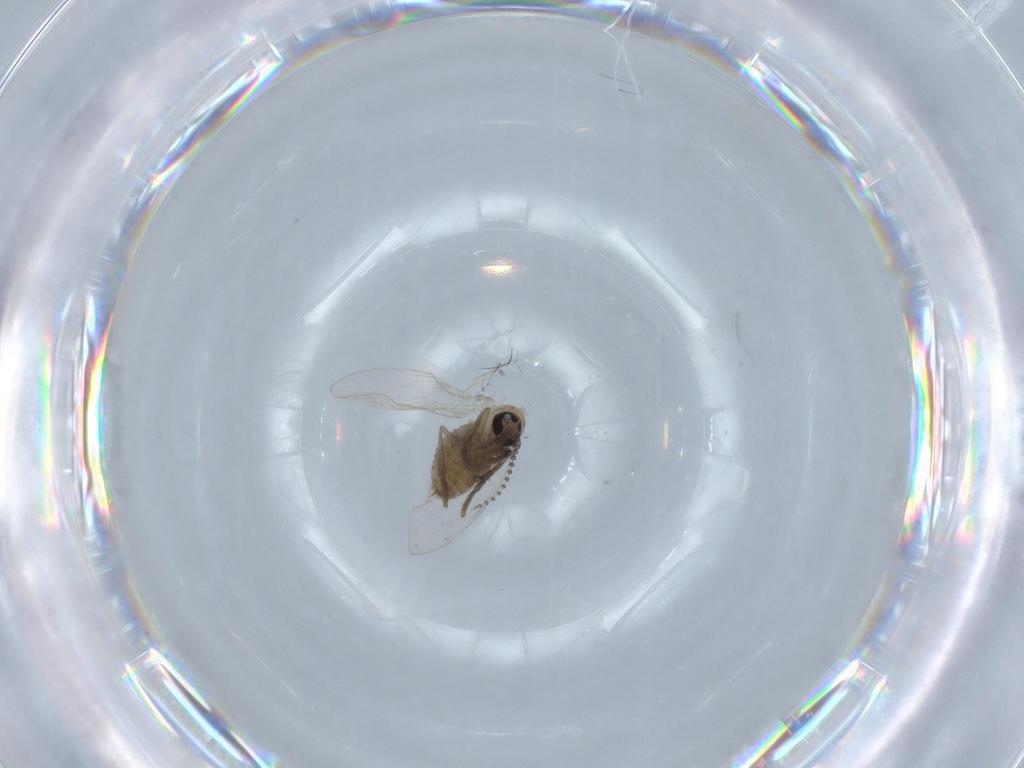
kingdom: Animalia
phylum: Arthropoda
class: Insecta
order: Diptera
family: Psychodidae
